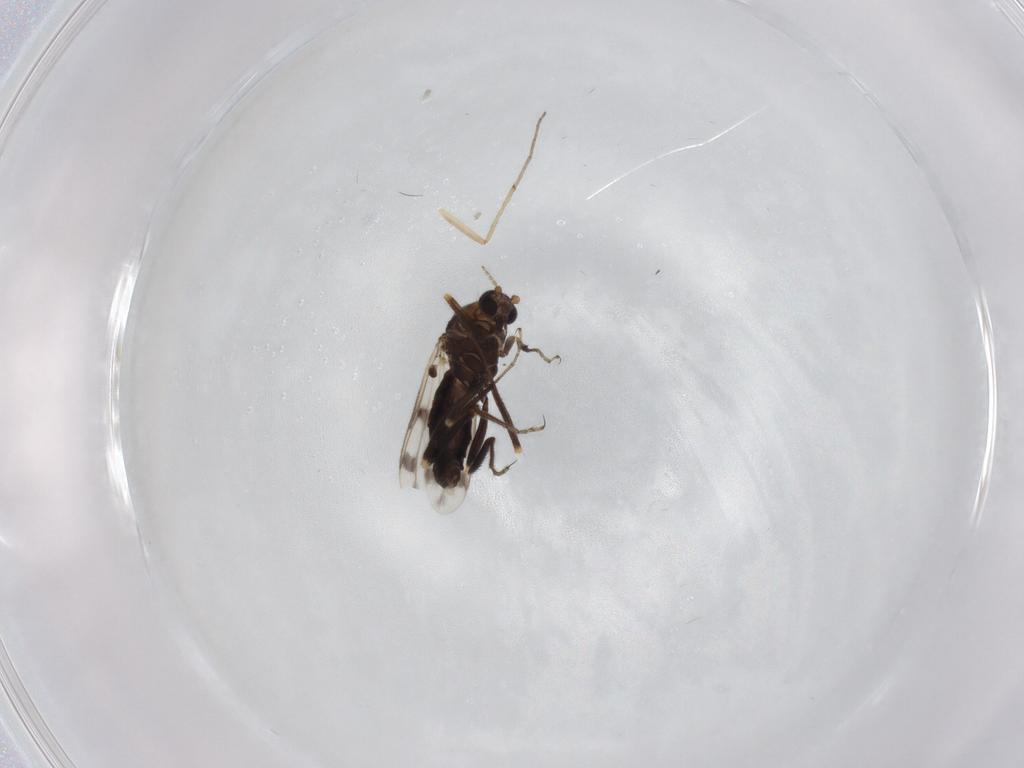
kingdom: Animalia
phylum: Arthropoda
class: Insecta
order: Diptera
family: Ceratopogonidae
